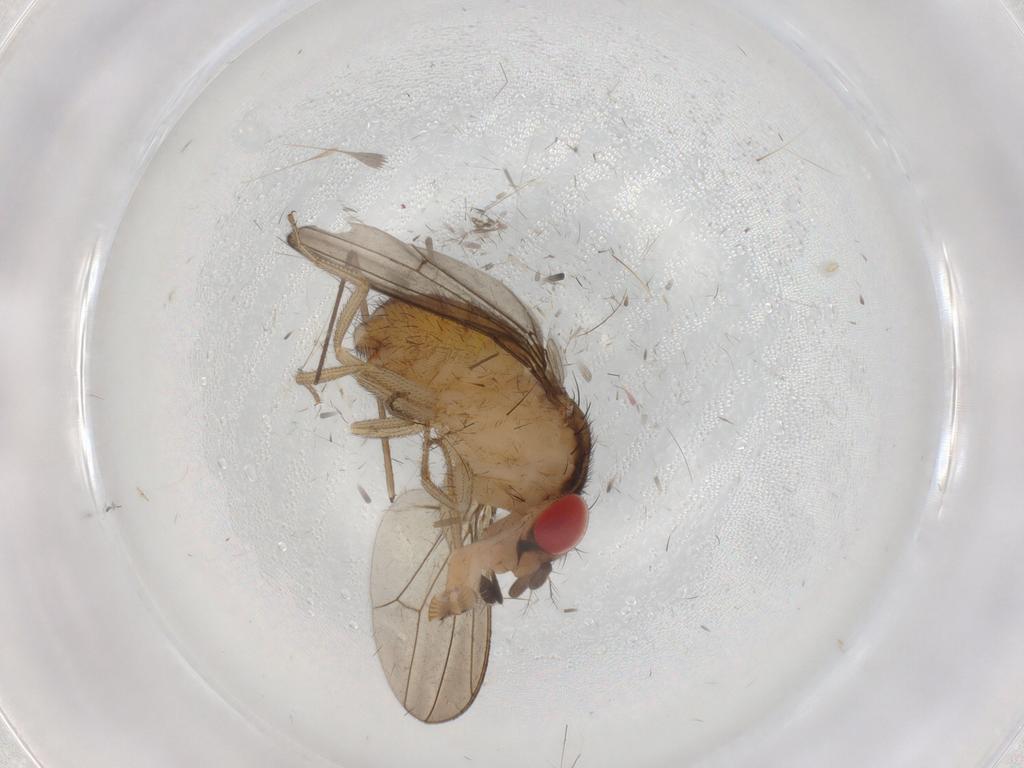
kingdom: Animalia
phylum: Arthropoda
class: Insecta
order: Diptera
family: Drosophilidae
